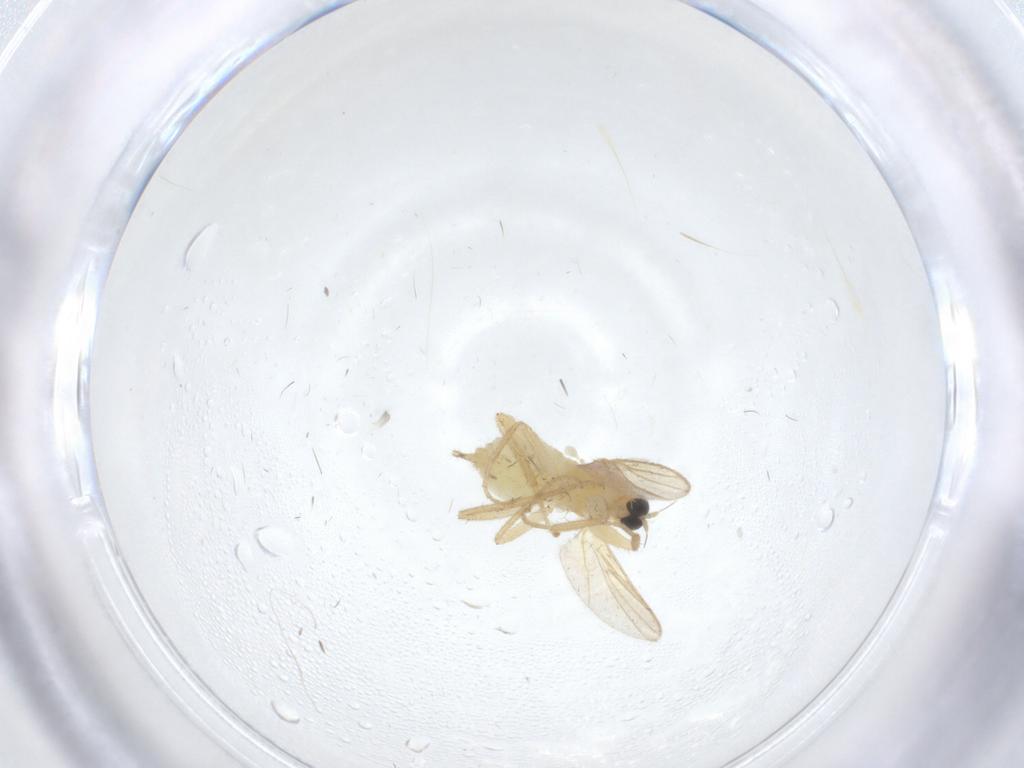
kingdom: Animalia
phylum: Arthropoda
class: Insecta
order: Diptera
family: Hybotidae
